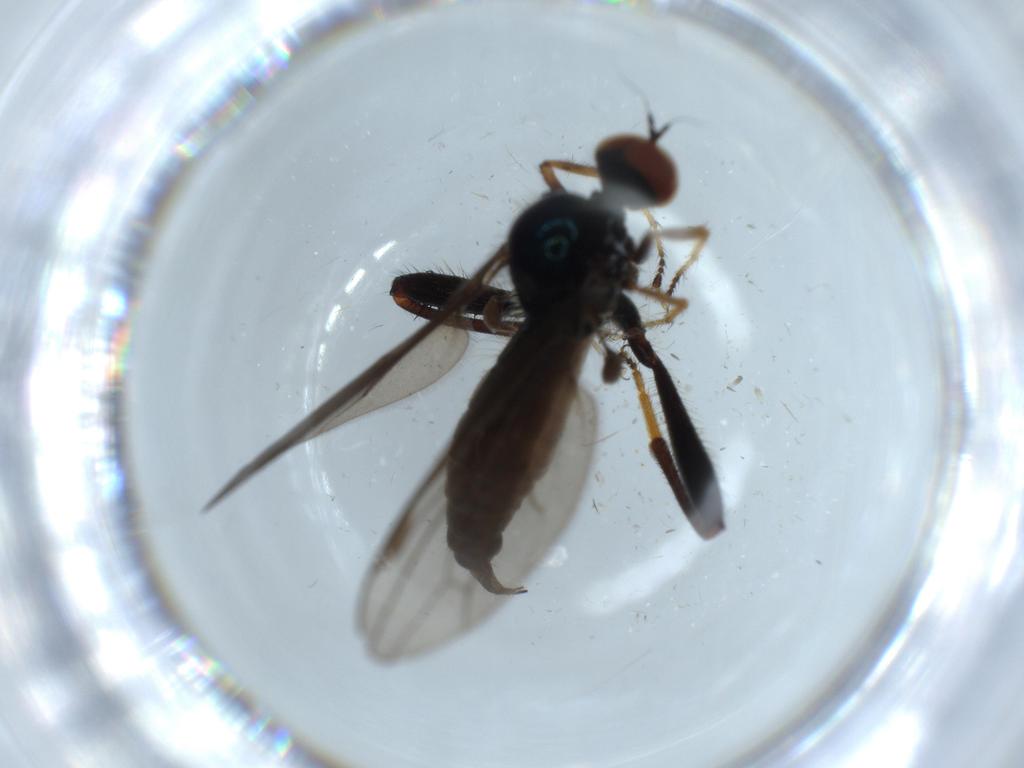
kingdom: Animalia
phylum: Arthropoda
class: Insecta
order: Diptera
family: Hybotidae
